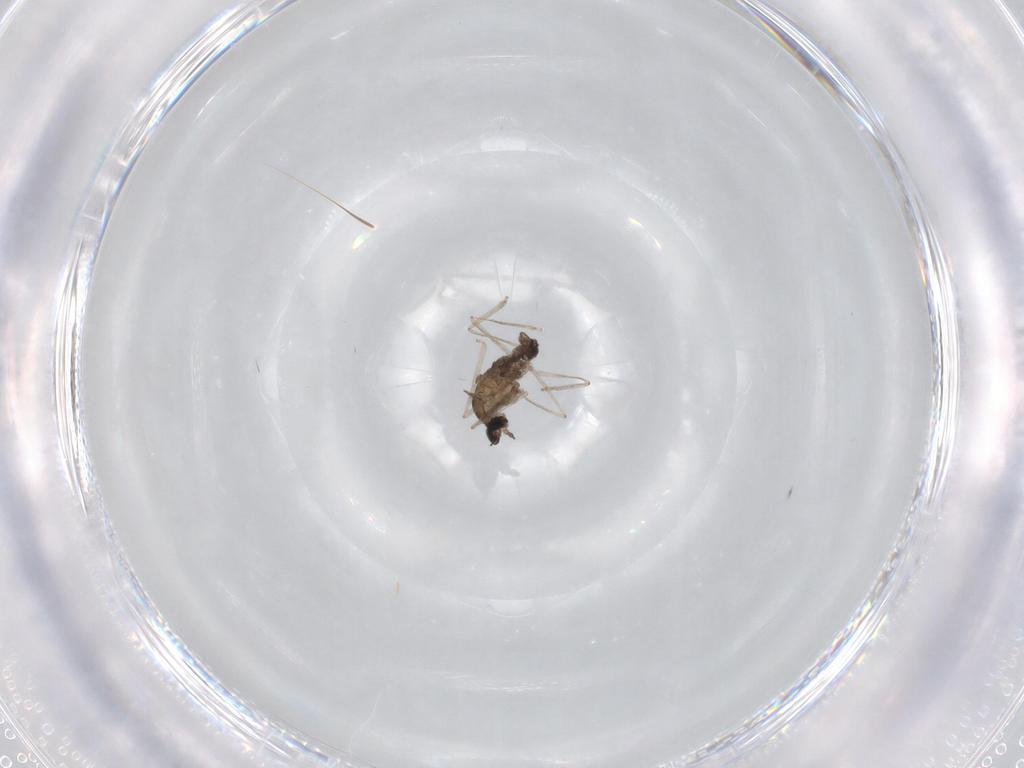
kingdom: Animalia
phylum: Arthropoda
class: Insecta
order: Diptera
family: Cecidomyiidae
